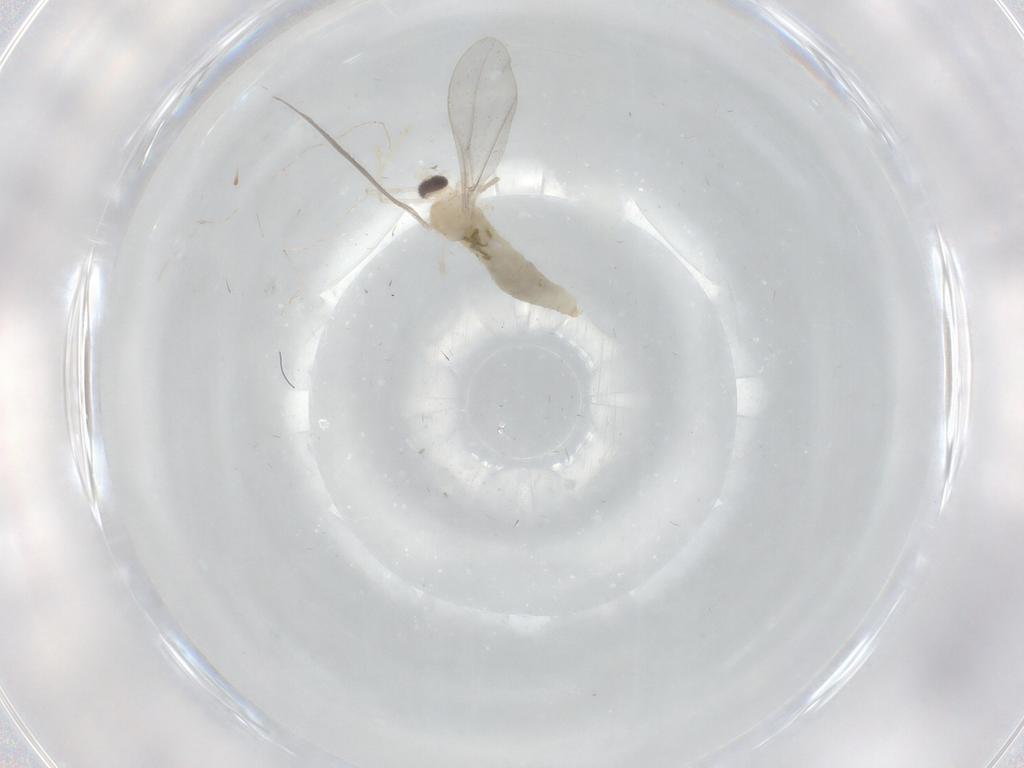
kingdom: Animalia
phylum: Arthropoda
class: Insecta
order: Diptera
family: Cecidomyiidae
